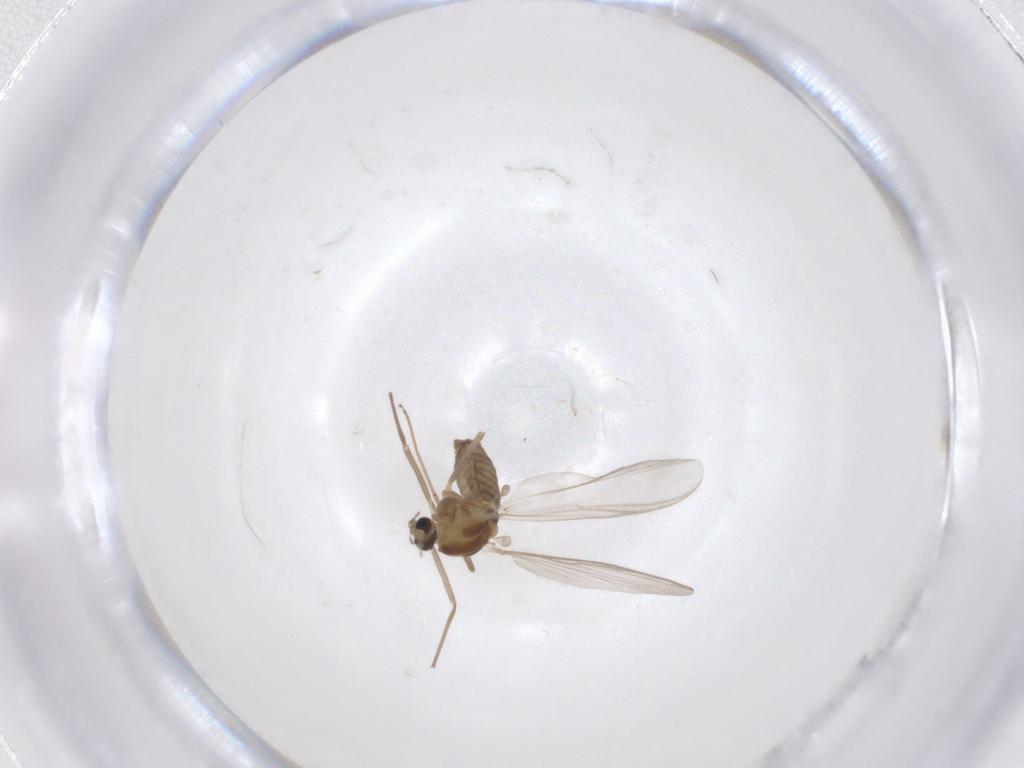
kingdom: Animalia
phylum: Arthropoda
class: Insecta
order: Diptera
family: Chironomidae
